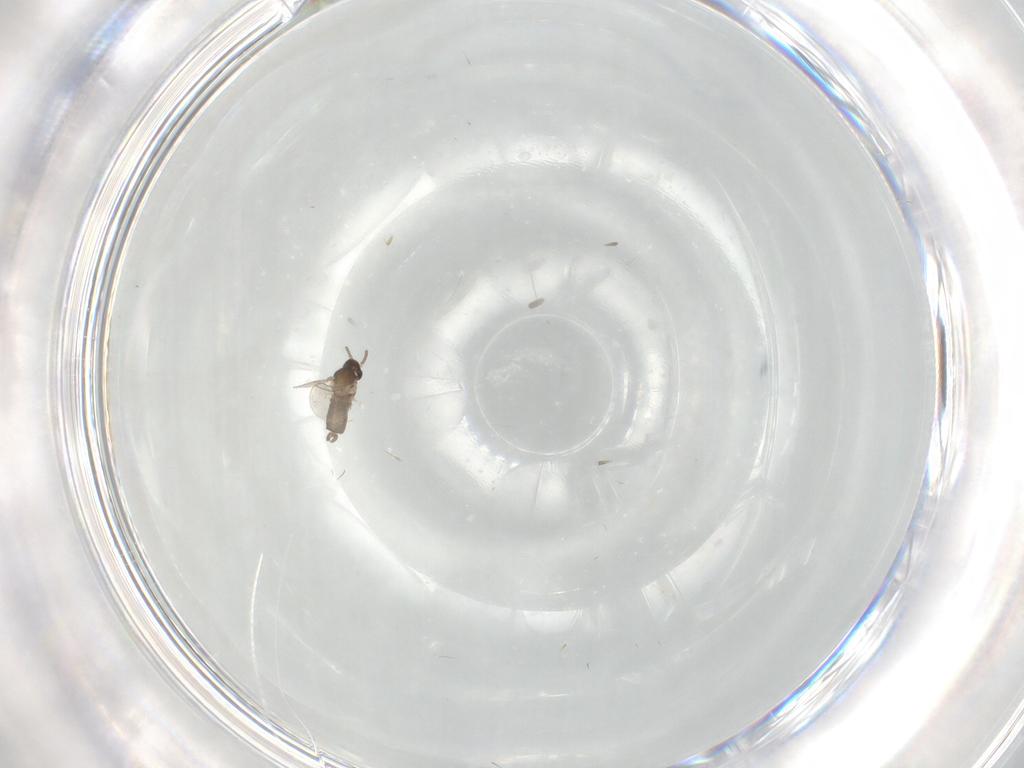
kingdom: Animalia
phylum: Arthropoda
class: Insecta
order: Diptera
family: Cecidomyiidae
